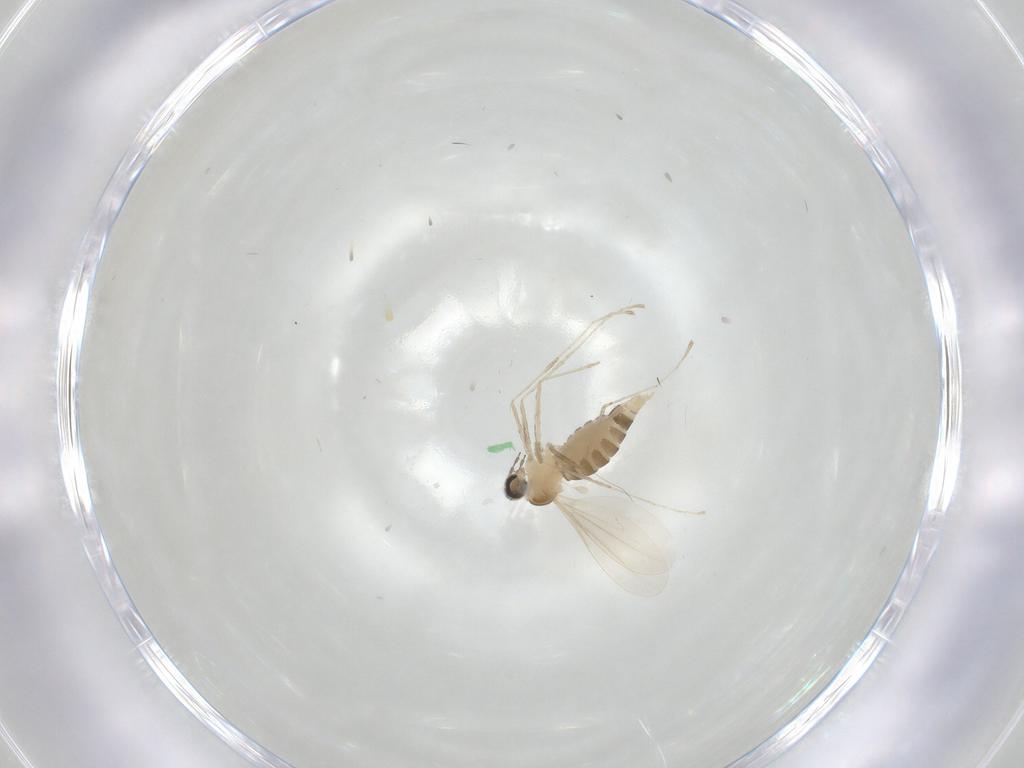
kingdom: Animalia
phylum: Arthropoda
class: Insecta
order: Diptera
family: Cecidomyiidae
